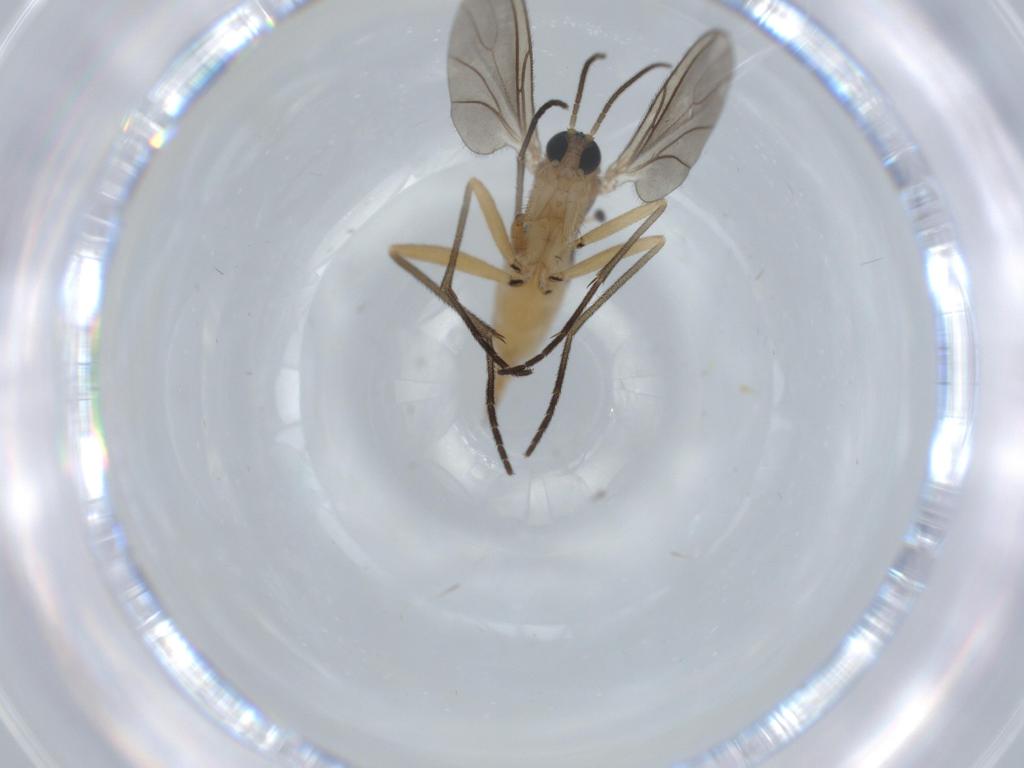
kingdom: Animalia
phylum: Arthropoda
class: Insecta
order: Diptera
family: Sciaridae
